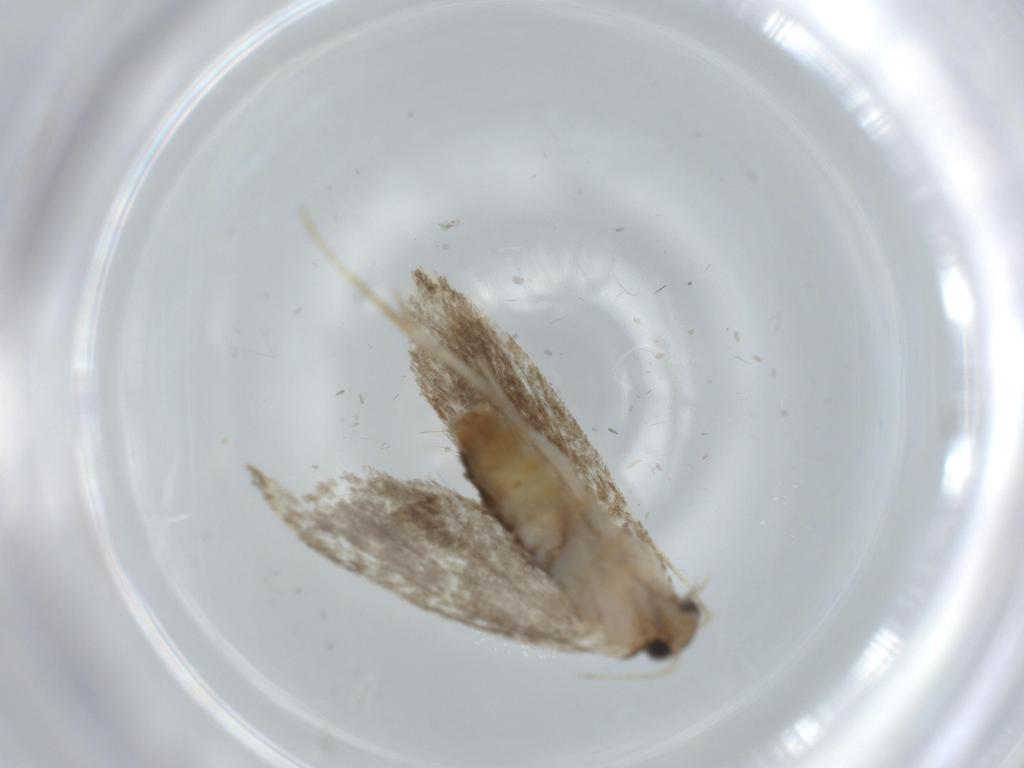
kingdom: Animalia
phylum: Arthropoda
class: Insecta
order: Lepidoptera
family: Tineidae
